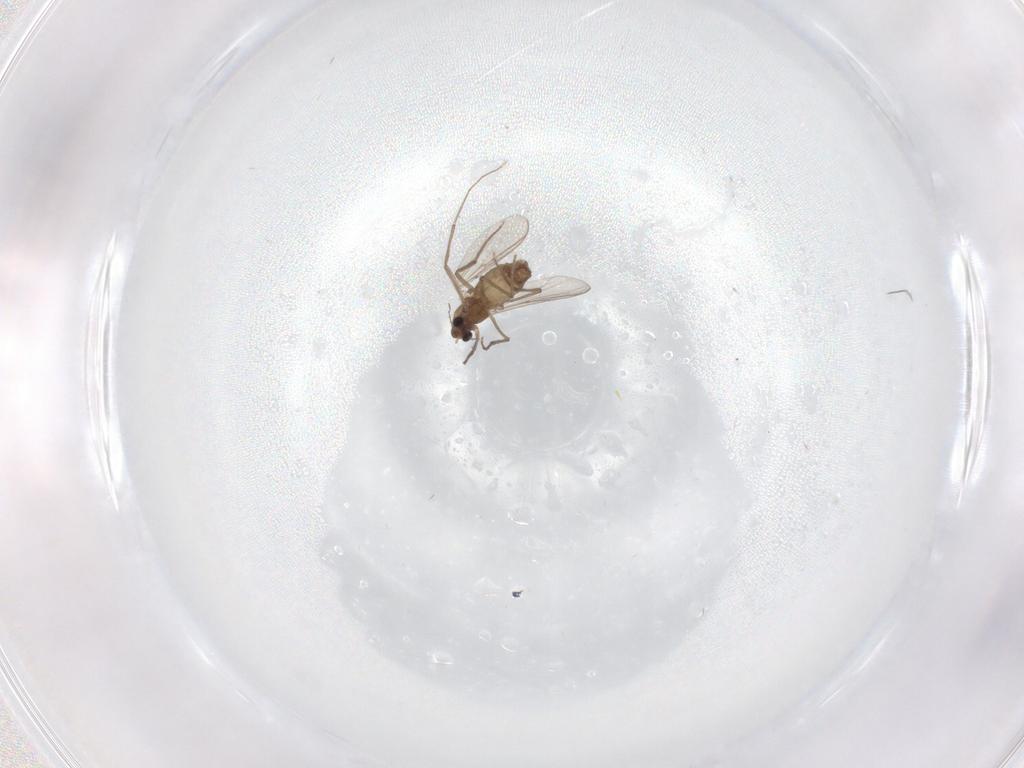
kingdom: Animalia
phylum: Arthropoda
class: Insecta
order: Diptera
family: Chironomidae
